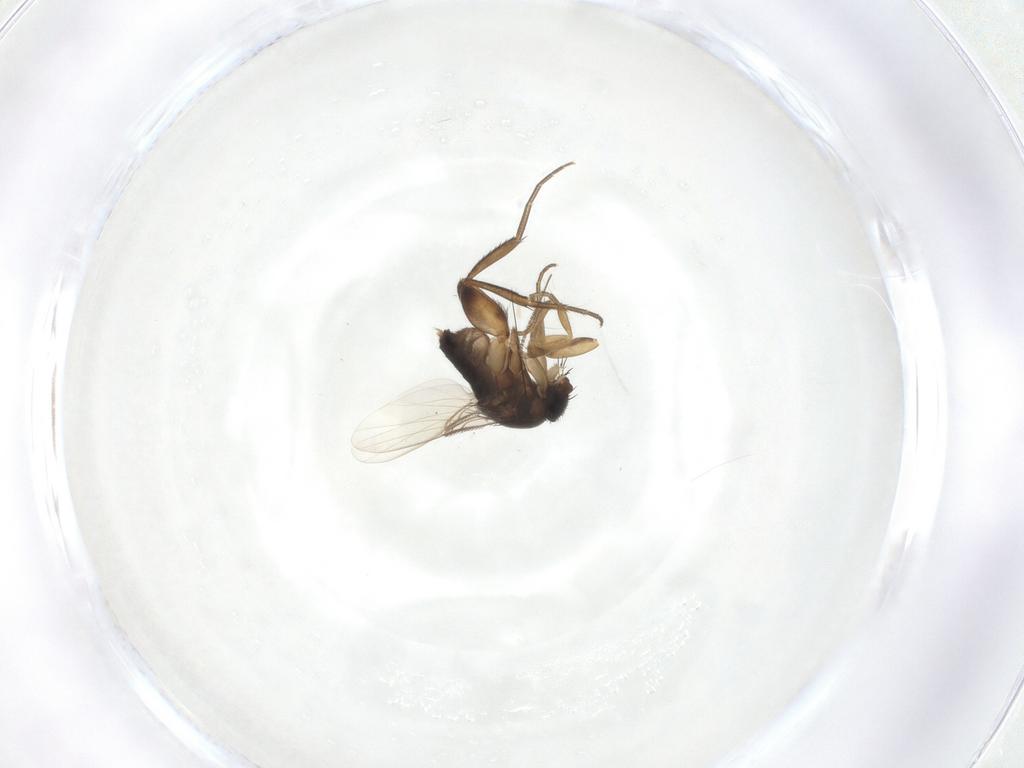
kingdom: Animalia
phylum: Arthropoda
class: Insecta
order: Diptera
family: Phoridae
